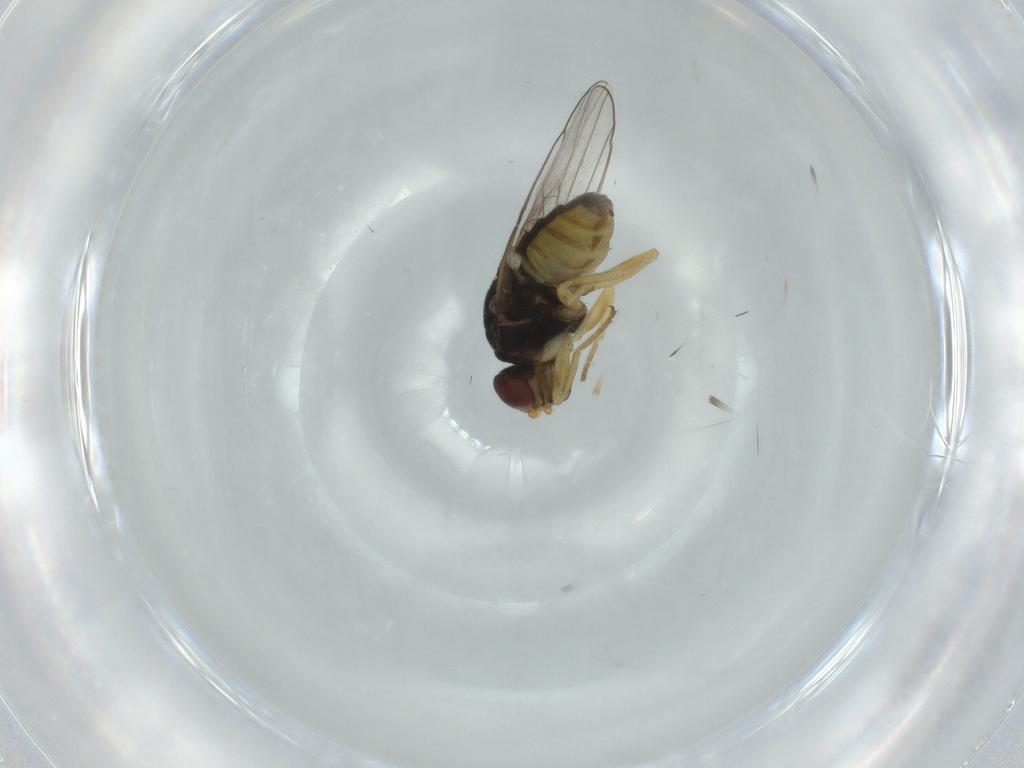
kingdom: Animalia
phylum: Arthropoda
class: Insecta
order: Diptera
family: Chloropidae
